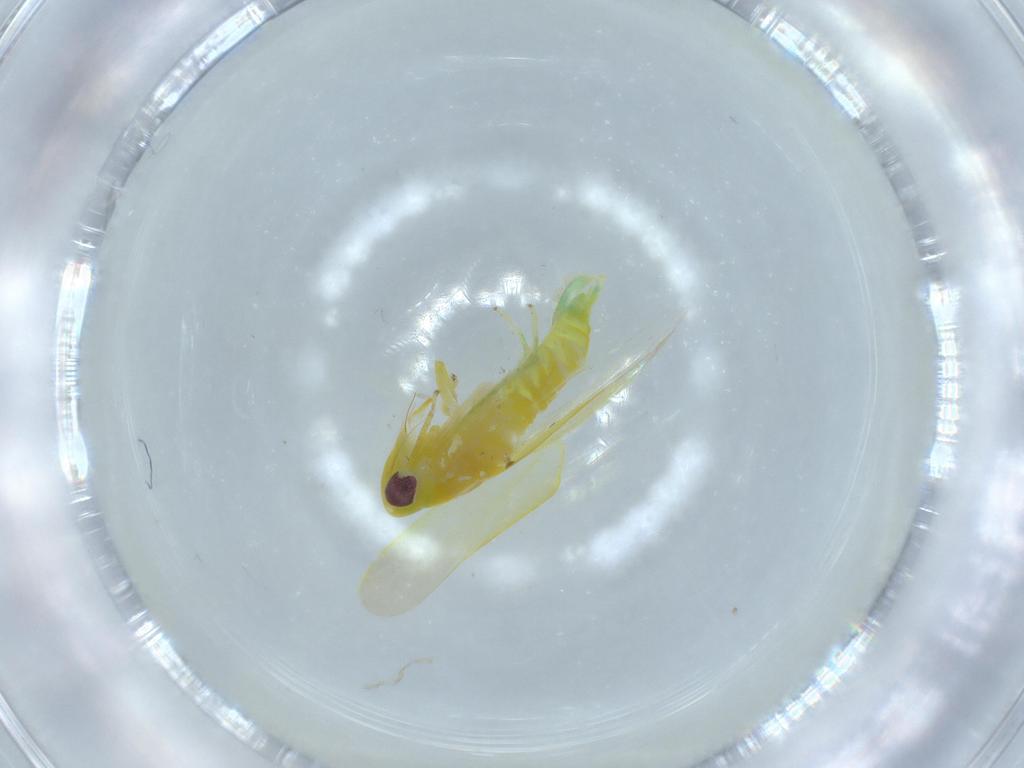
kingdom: Animalia
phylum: Arthropoda
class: Insecta
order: Hemiptera
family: Cicadellidae
